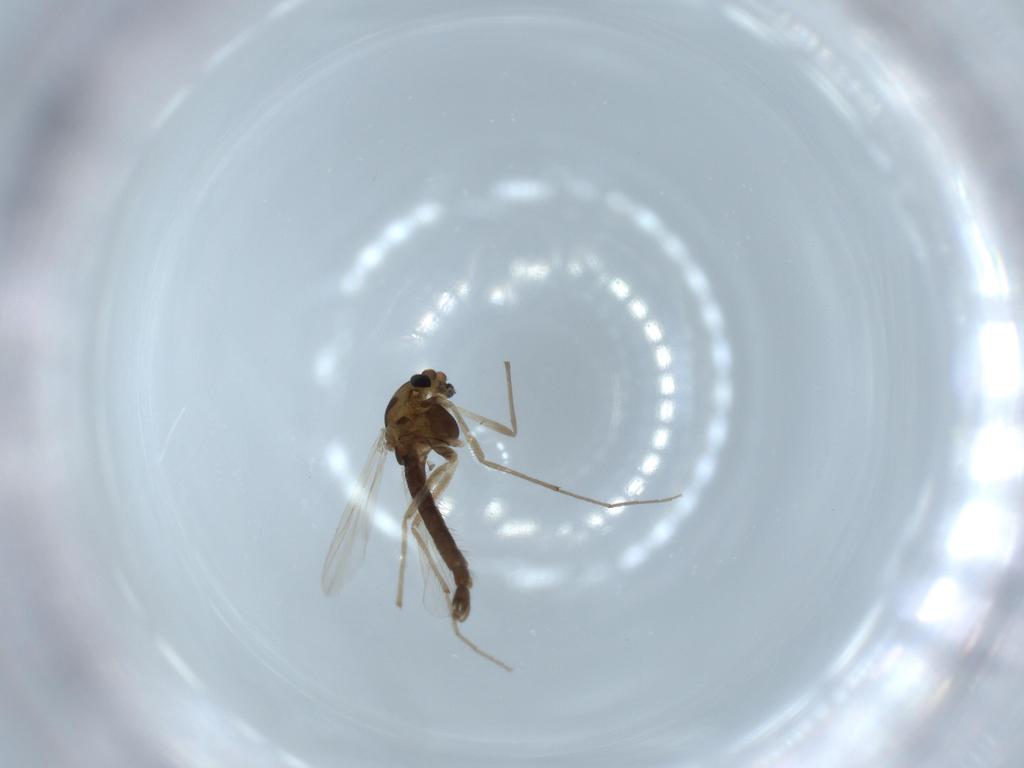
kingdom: Animalia
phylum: Arthropoda
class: Insecta
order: Diptera
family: Chironomidae
